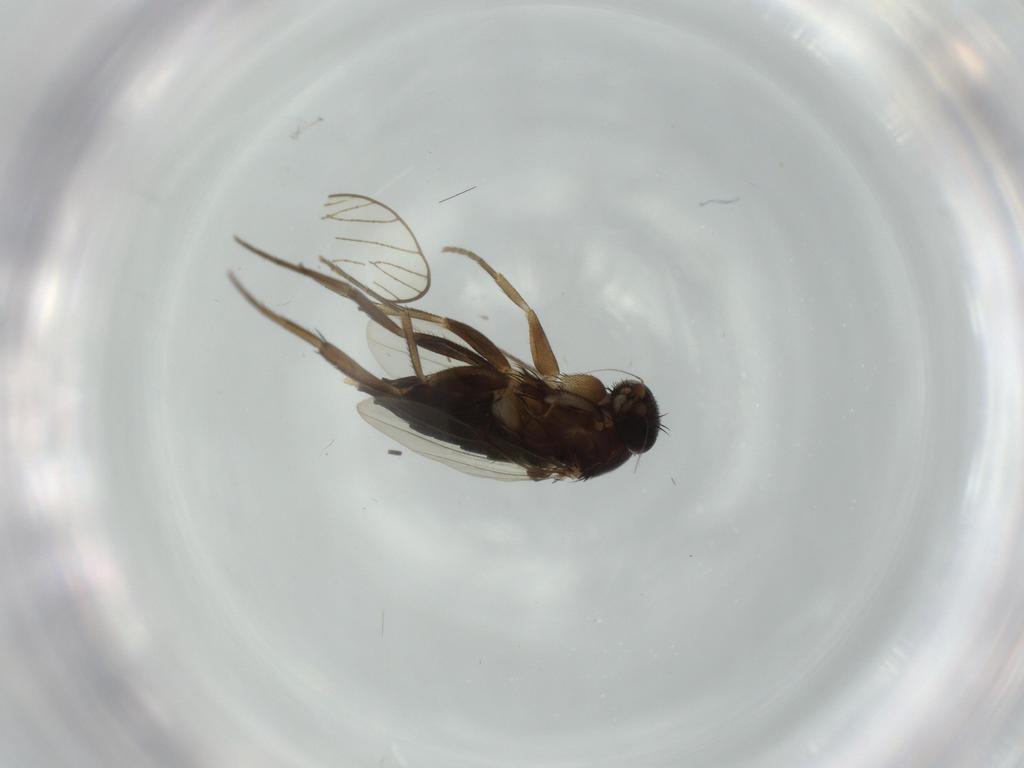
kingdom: Animalia
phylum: Arthropoda
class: Insecta
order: Diptera
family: Phoridae
